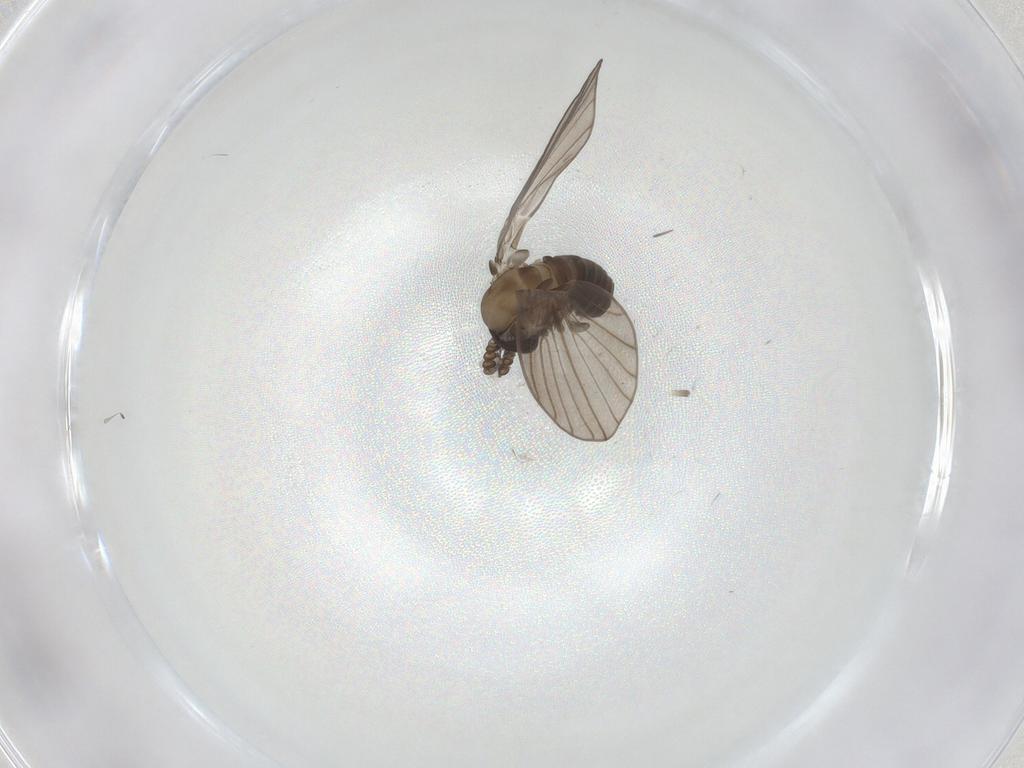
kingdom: Animalia
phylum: Arthropoda
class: Insecta
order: Diptera
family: Psychodidae
